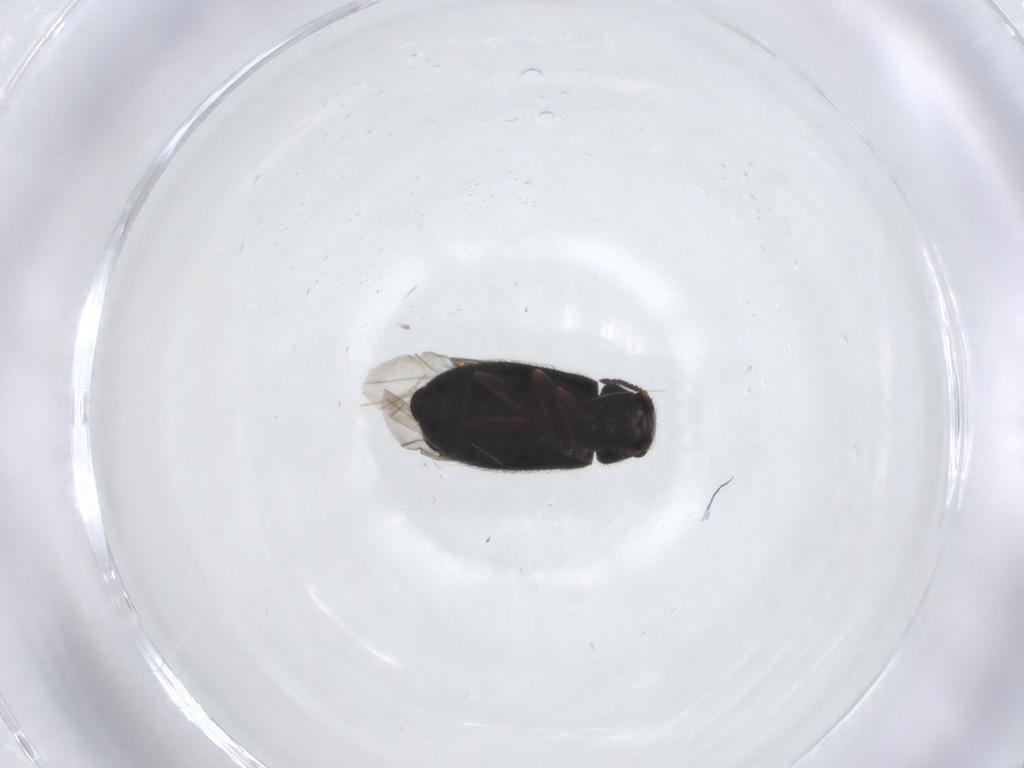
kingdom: Animalia
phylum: Arthropoda
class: Insecta
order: Coleoptera
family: Melyridae
